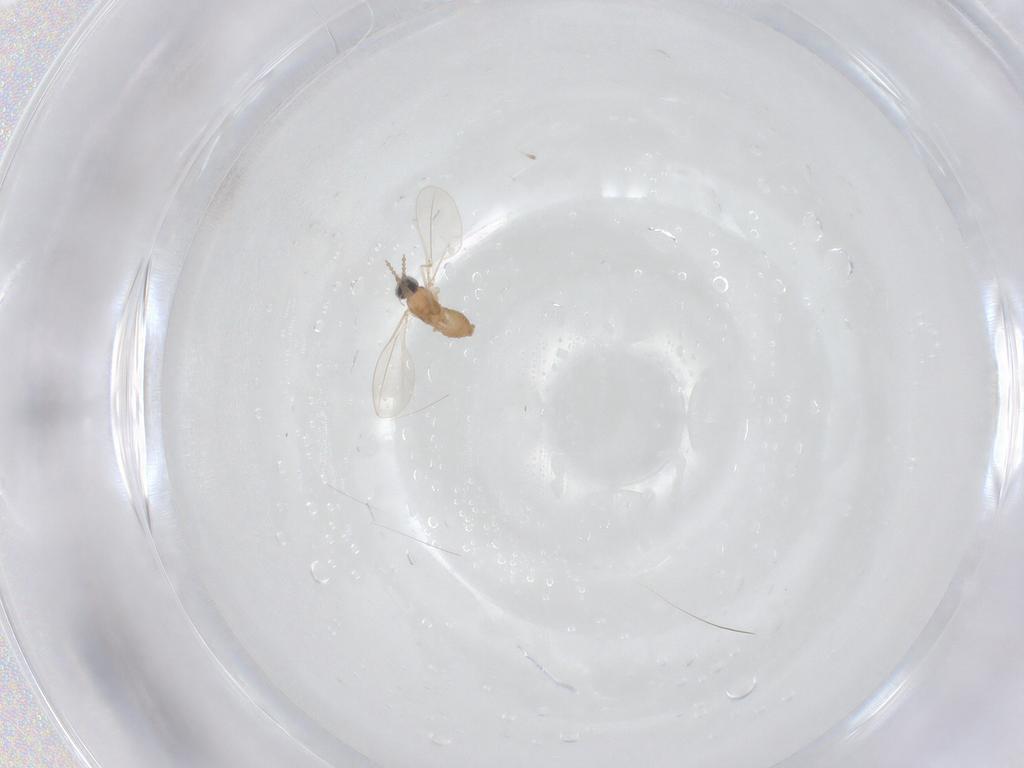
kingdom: Animalia
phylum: Arthropoda
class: Insecta
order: Diptera
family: Cecidomyiidae
